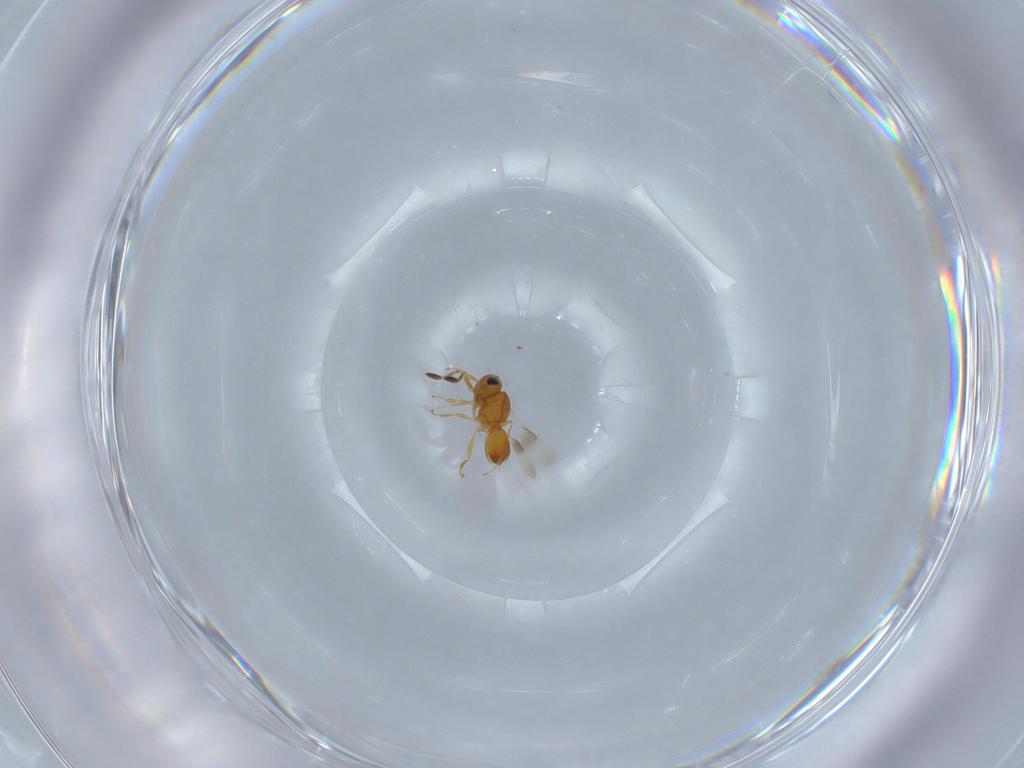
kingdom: Animalia
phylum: Arthropoda
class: Insecta
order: Hymenoptera
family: Scelionidae
